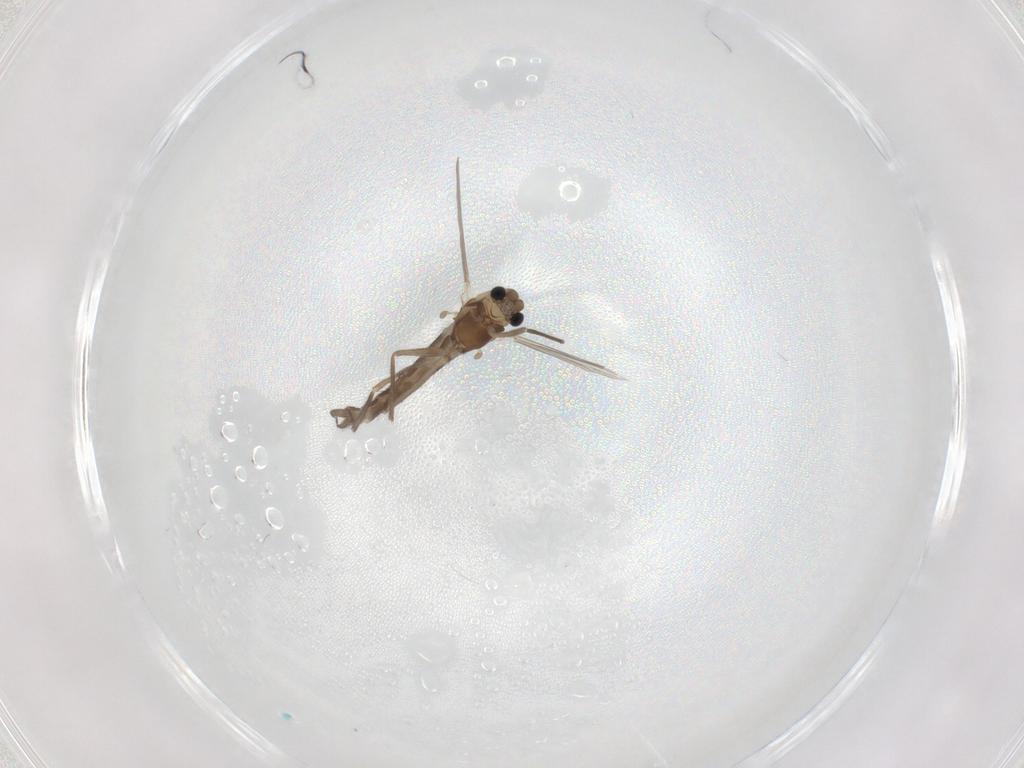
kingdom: Animalia
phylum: Arthropoda
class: Insecta
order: Diptera
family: Chironomidae
